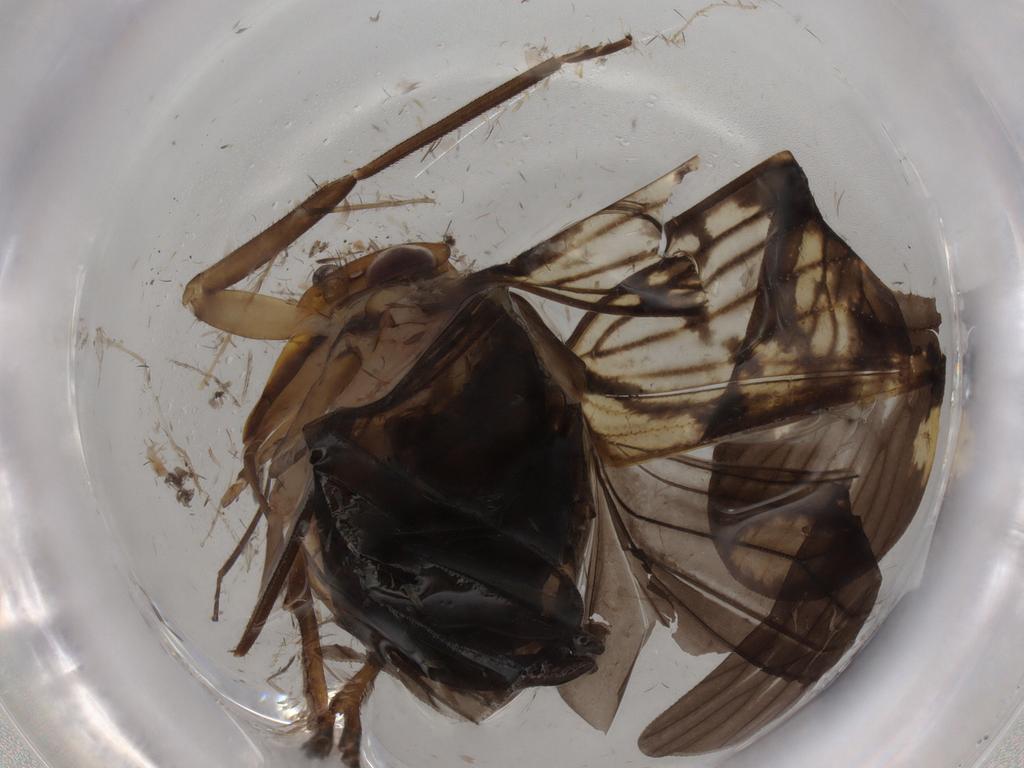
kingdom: Animalia
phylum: Arthropoda
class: Insecta
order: Hemiptera
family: Cixiidae
